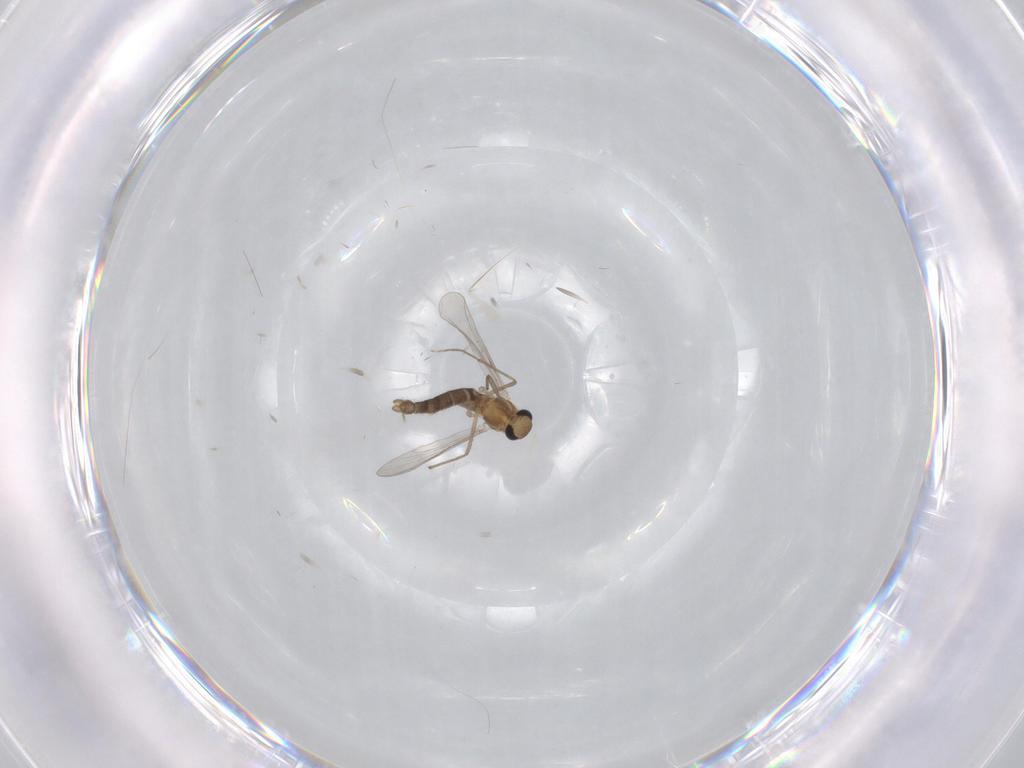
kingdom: Animalia
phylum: Arthropoda
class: Insecta
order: Diptera
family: Chironomidae
